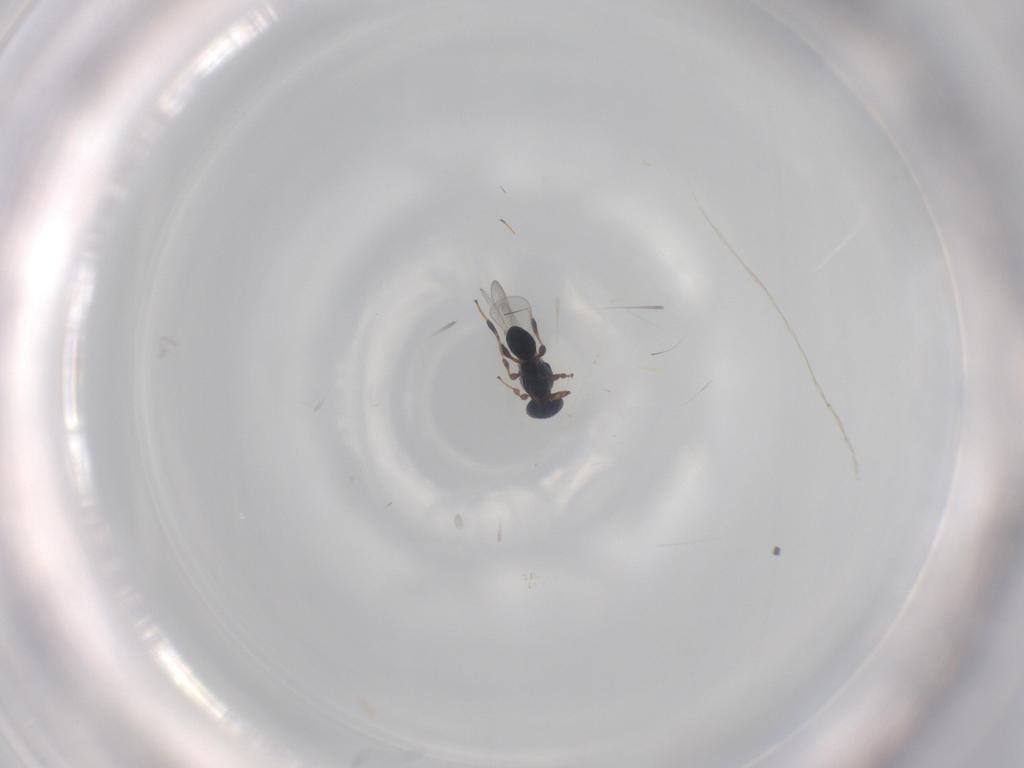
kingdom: Animalia
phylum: Arthropoda
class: Insecta
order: Hymenoptera
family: Platygastridae
